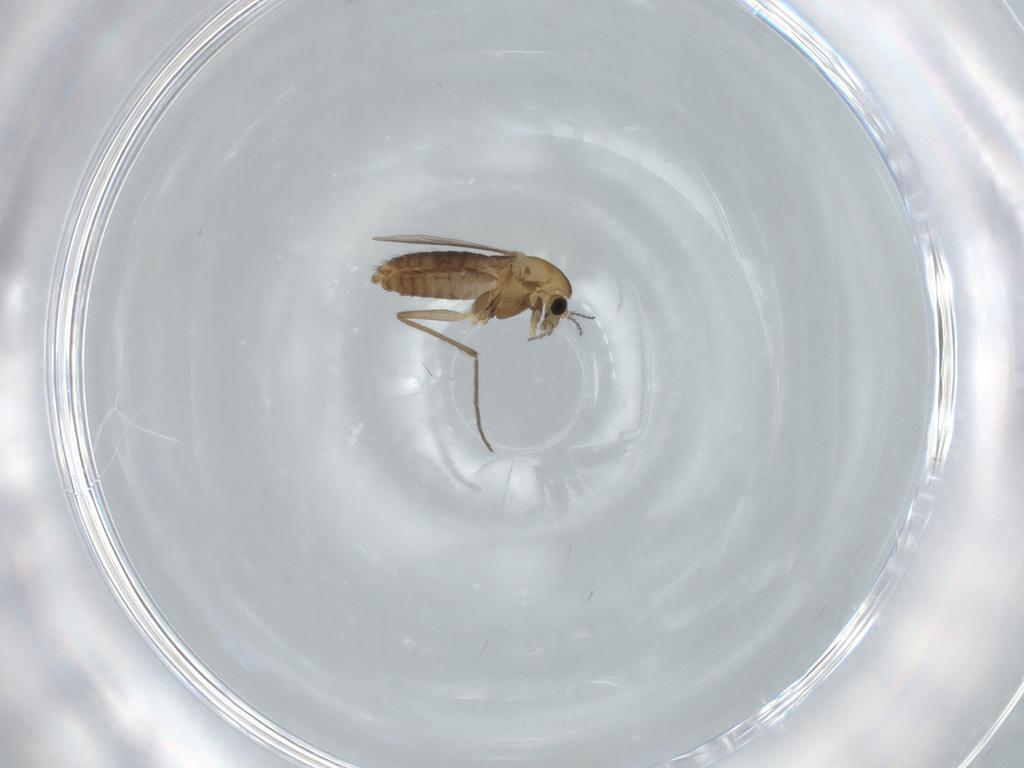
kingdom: Animalia
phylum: Arthropoda
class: Insecta
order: Diptera
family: Chironomidae
